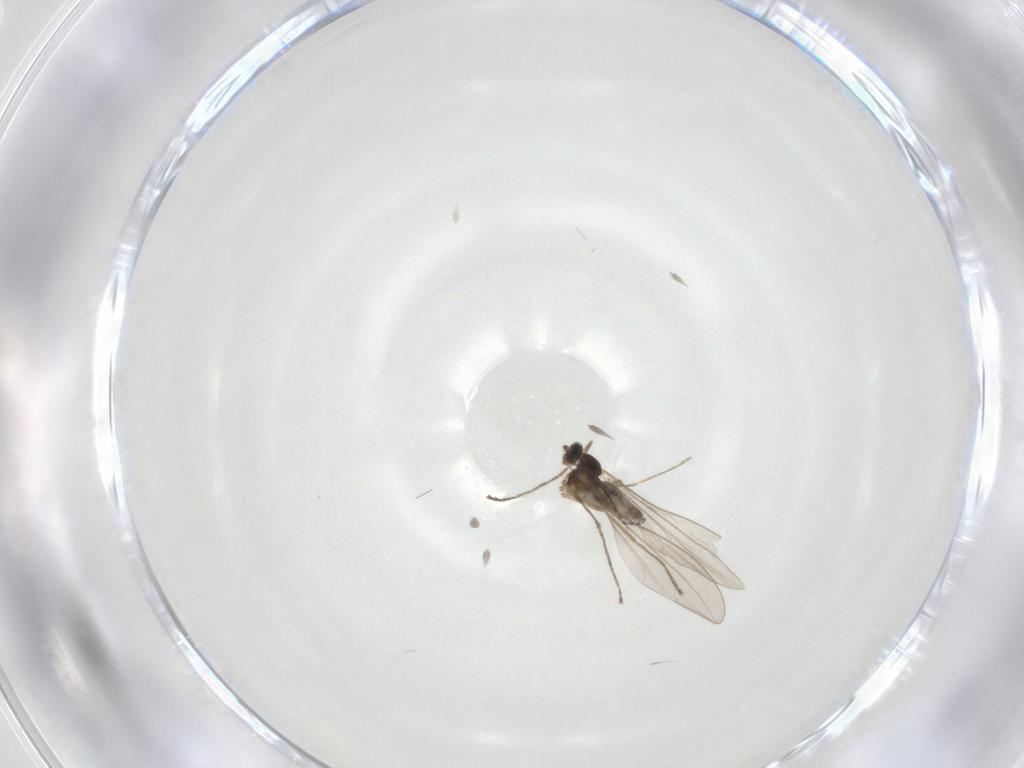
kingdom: Animalia
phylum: Arthropoda
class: Insecta
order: Diptera
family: Cecidomyiidae
